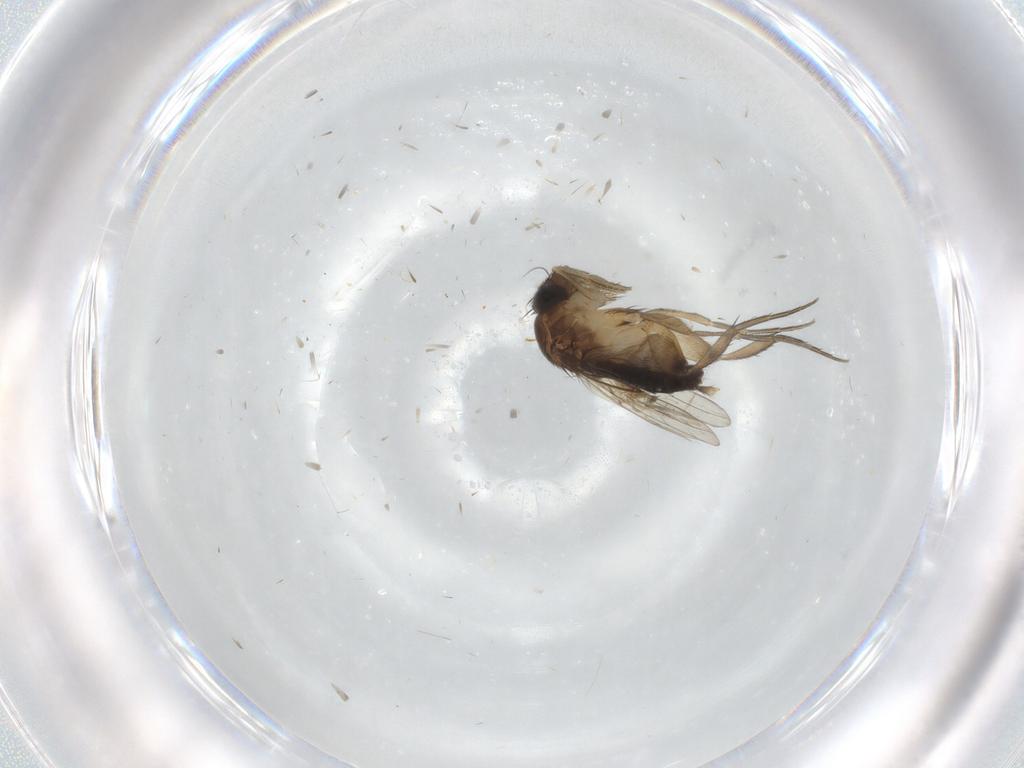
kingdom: Animalia
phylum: Arthropoda
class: Insecta
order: Diptera
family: Phoridae
